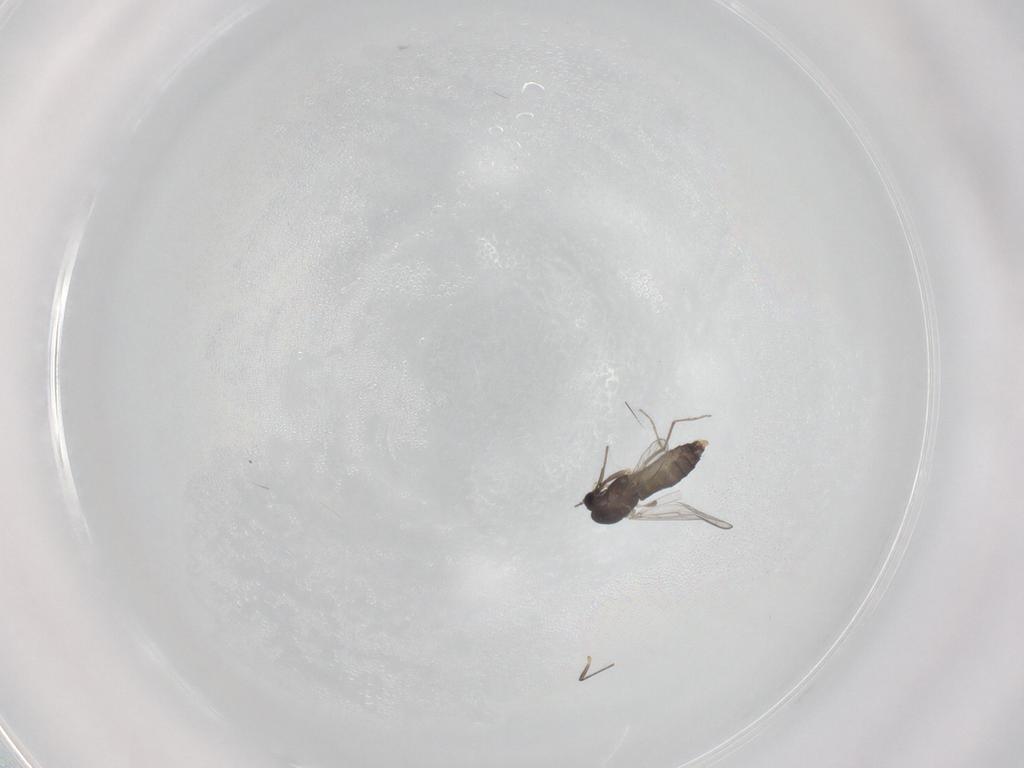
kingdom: Animalia
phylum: Arthropoda
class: Insecta
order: Diptera
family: Chironomidae
